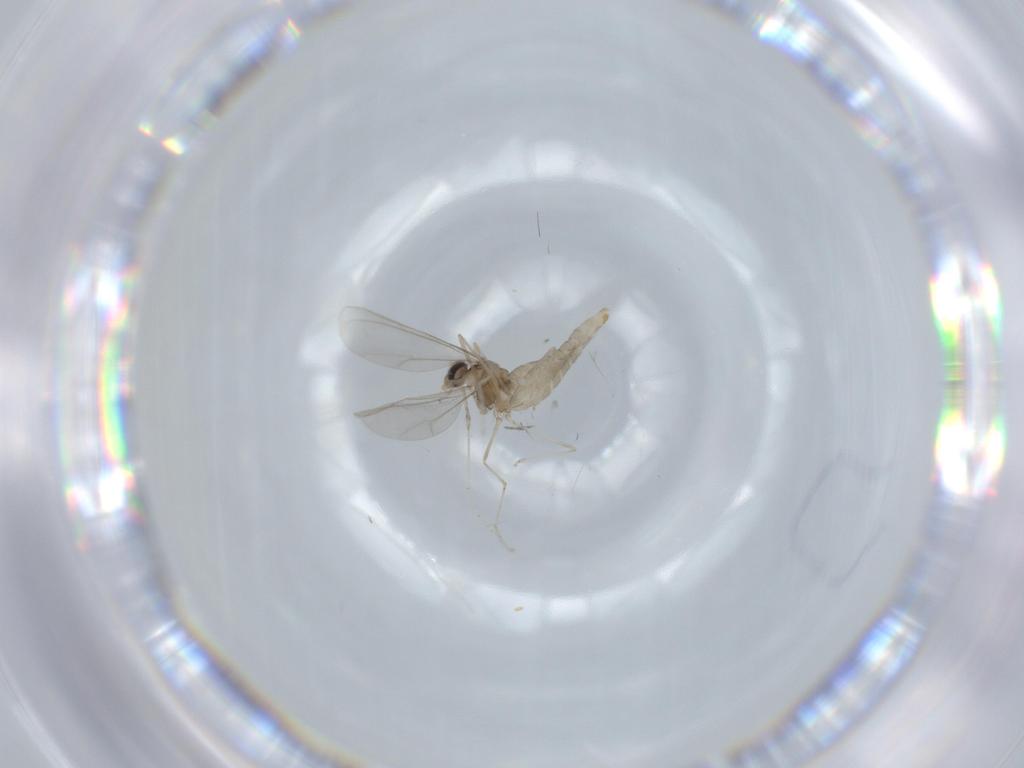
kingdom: Animalia
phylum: Arthropoda
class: Insecta
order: Diptera
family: Cecidomyiidae
